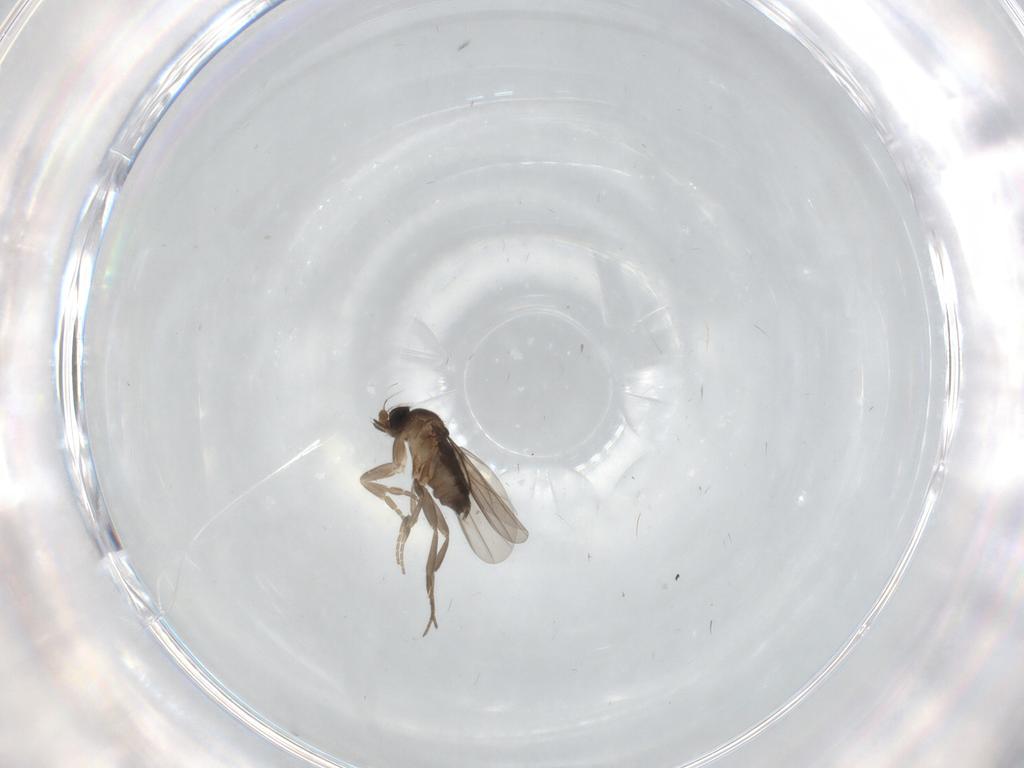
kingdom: Animalia
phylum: Arthropoda
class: Insecta
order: Diptera
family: Phoridae
